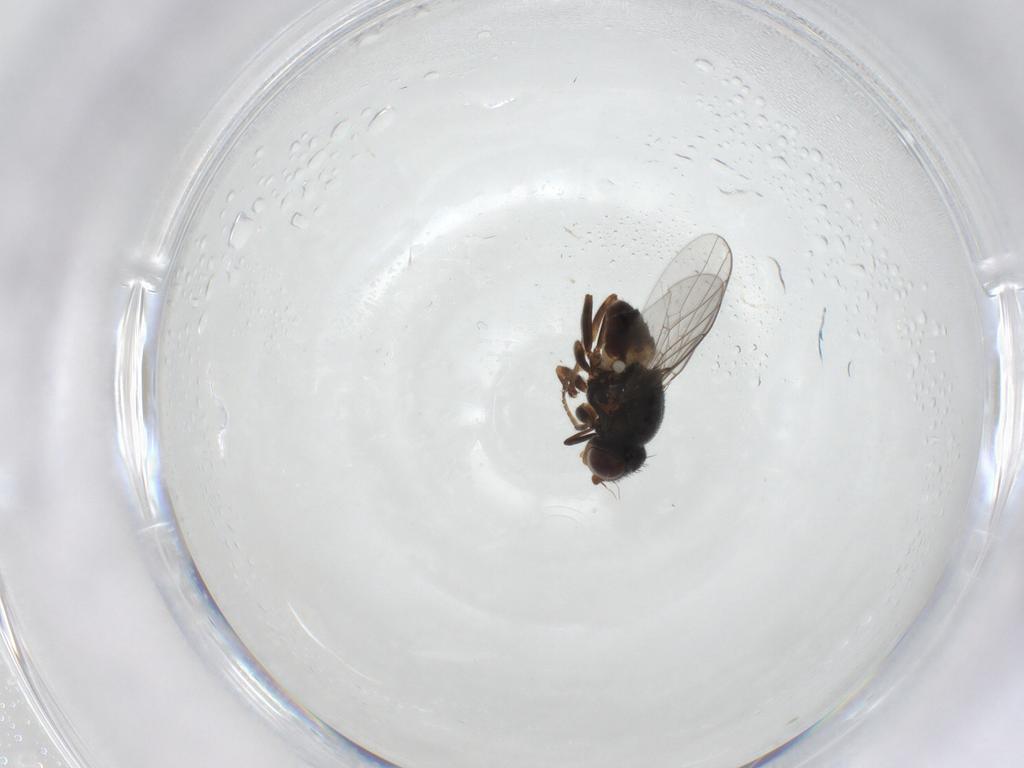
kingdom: Animalia
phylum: Arthropoda
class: Insecta
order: Diptera
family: Chloropidae
